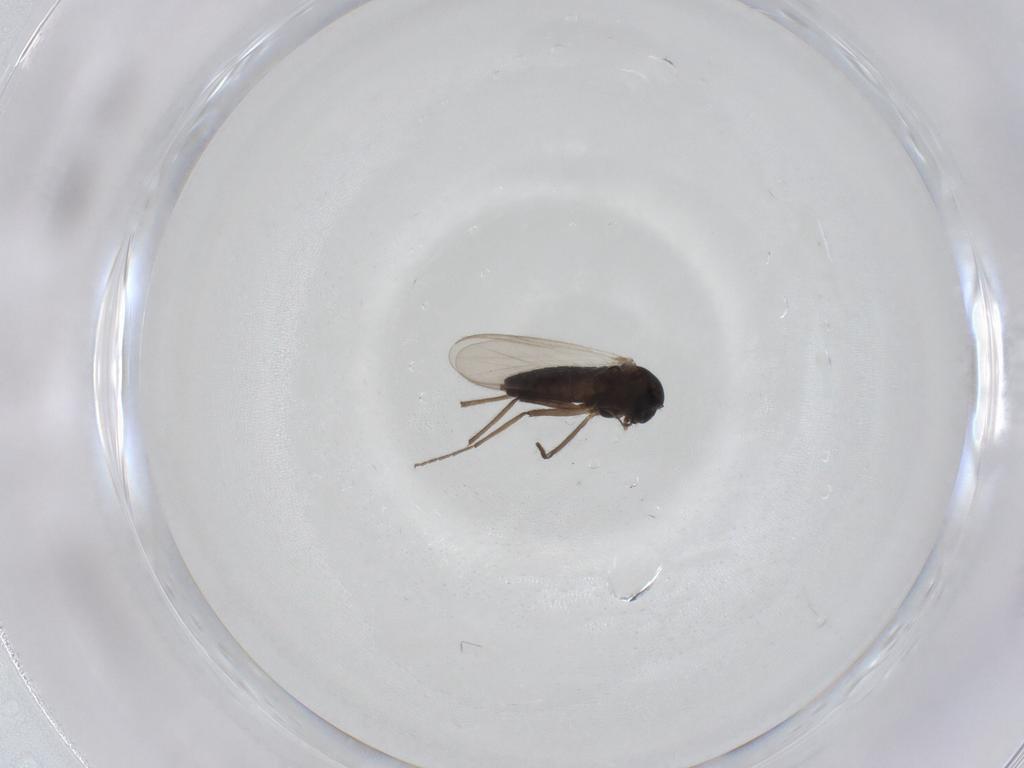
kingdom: Animalia
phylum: Arthropoda
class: Insecta
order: Diptera
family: Chironomidae
